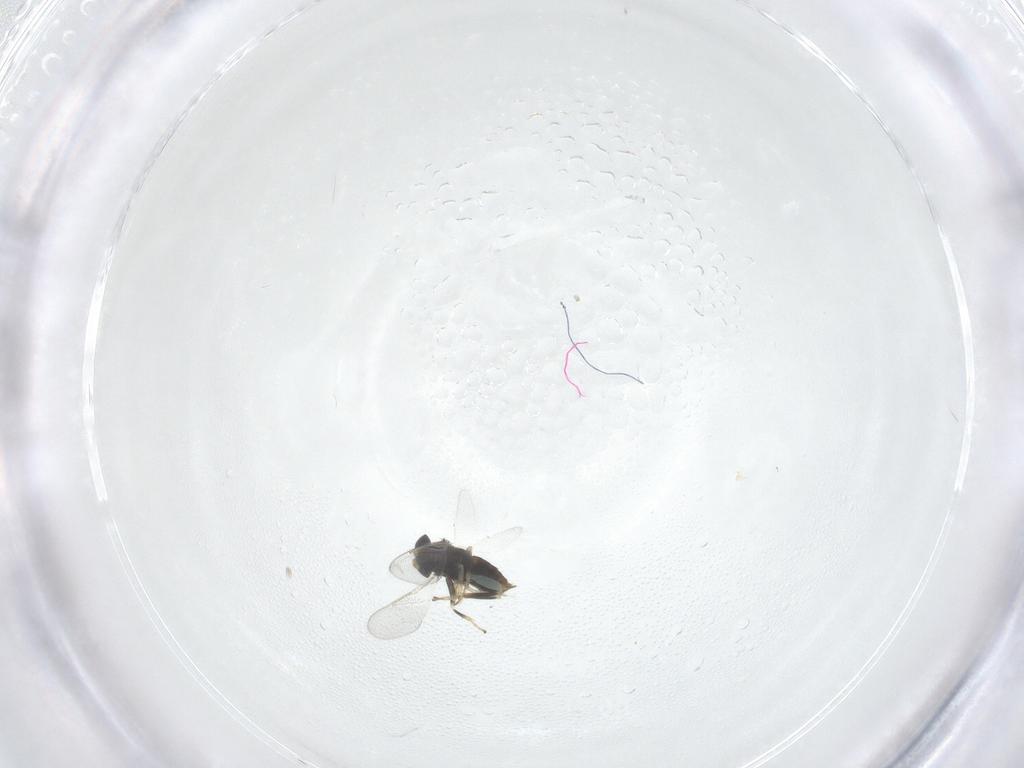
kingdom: Animalia
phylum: Arthropoda
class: Insecta
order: Hymenoptera
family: Aphelinidae
